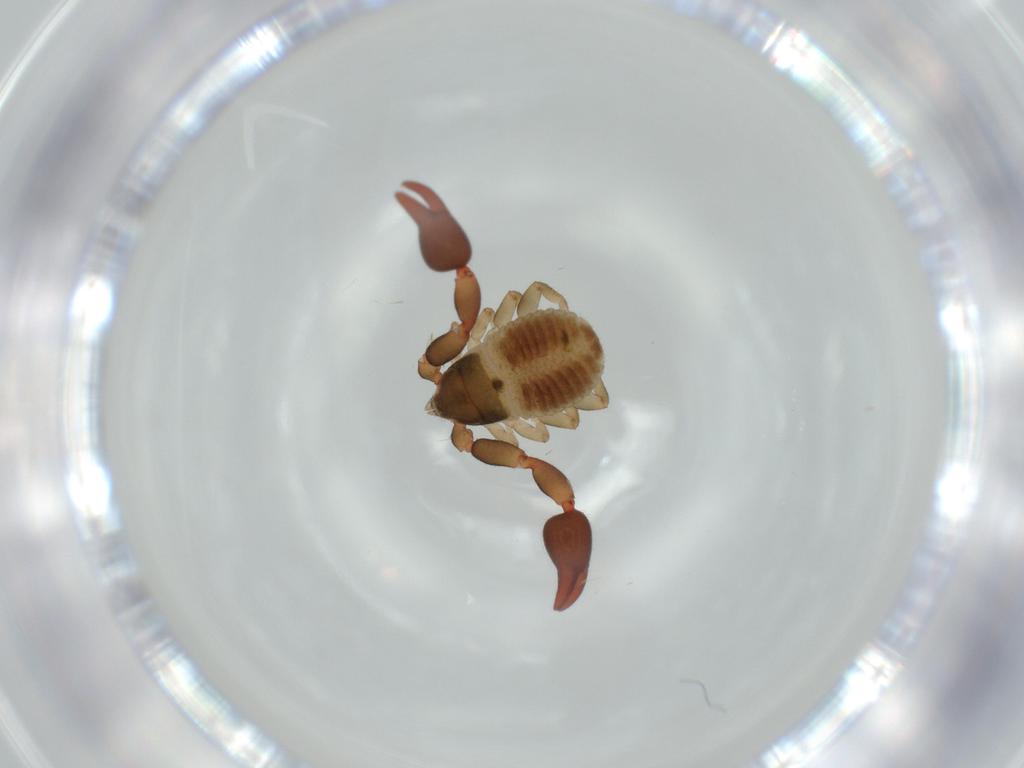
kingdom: Animalia
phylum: Arthropoda
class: Arachnida
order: Pseudoscorpiones
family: Chernetidae
